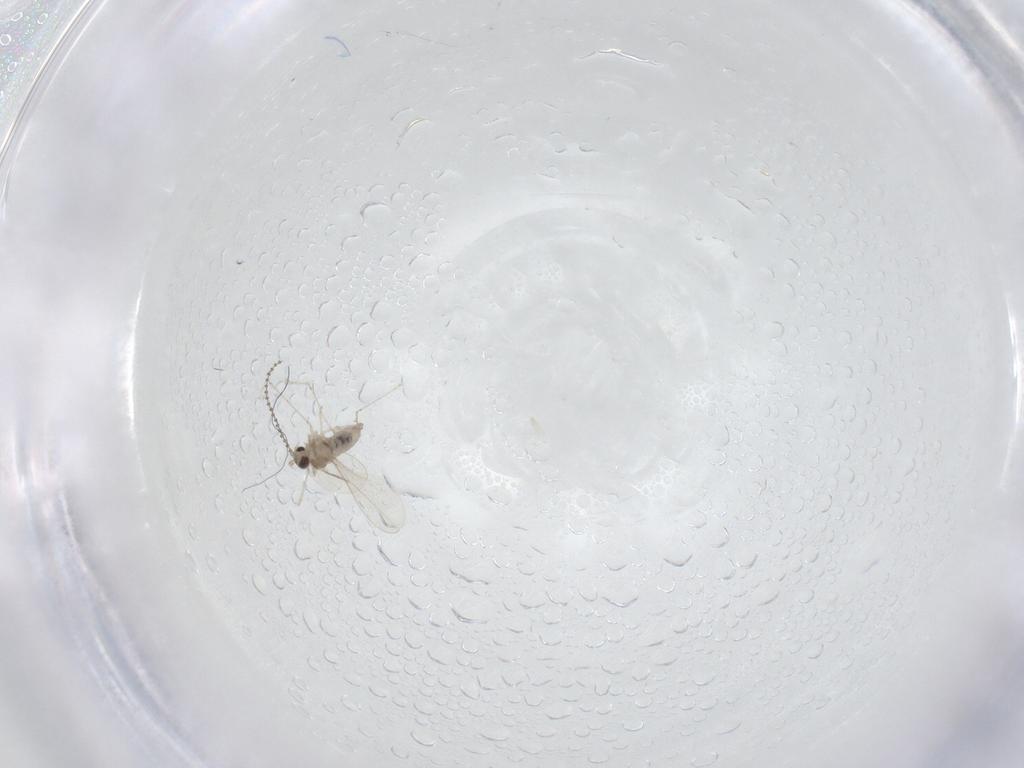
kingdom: Animalia
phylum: Arthropoda
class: Insecta
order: Diptera
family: Cecidomyiidae
